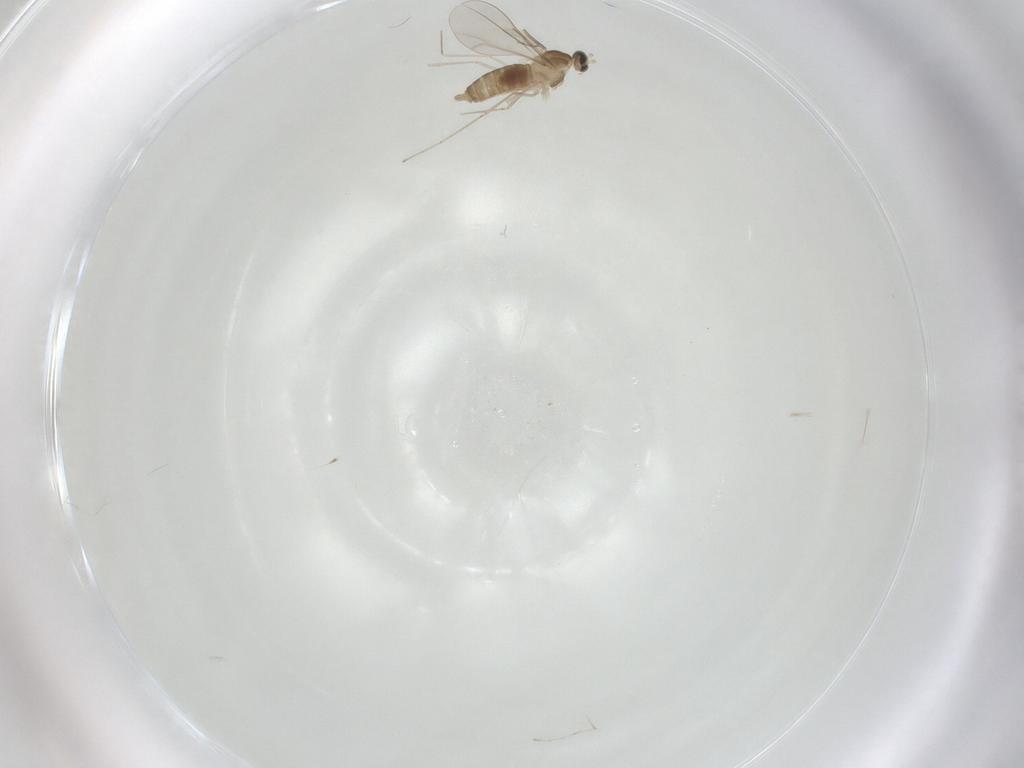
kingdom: Animalia
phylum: Arthropoda
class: Insecta
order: Diptera
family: Cecidomyiidae
